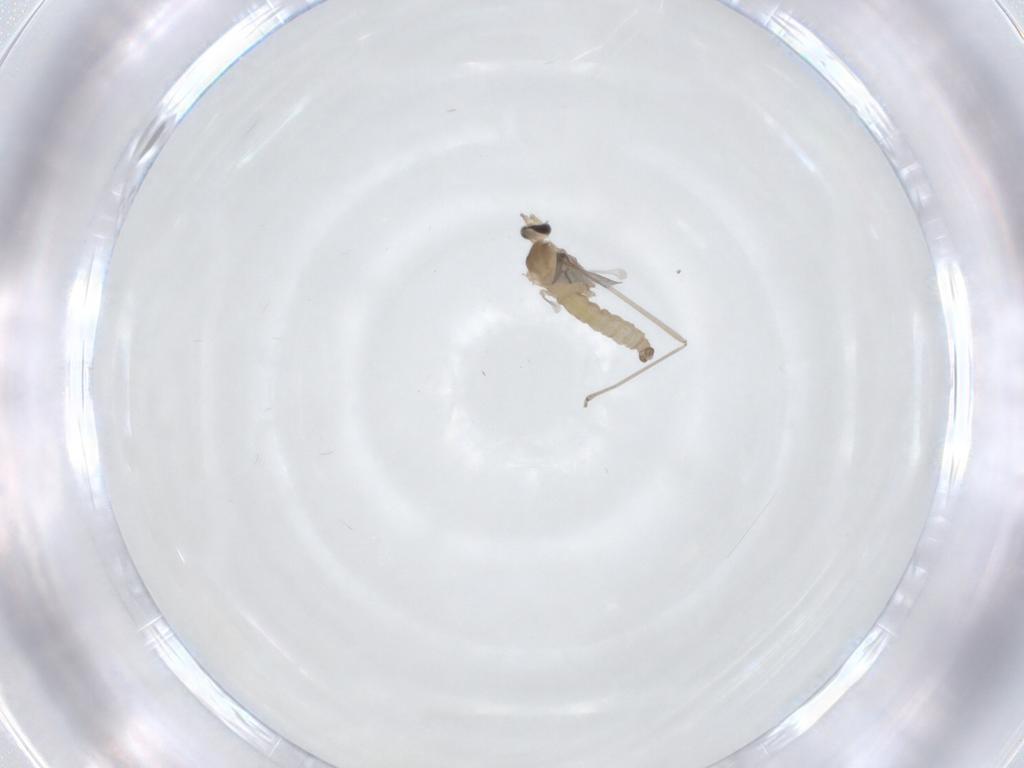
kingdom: Animalia
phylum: Arthropoda
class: Insecta
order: Diptera
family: Cecidomyiidae
